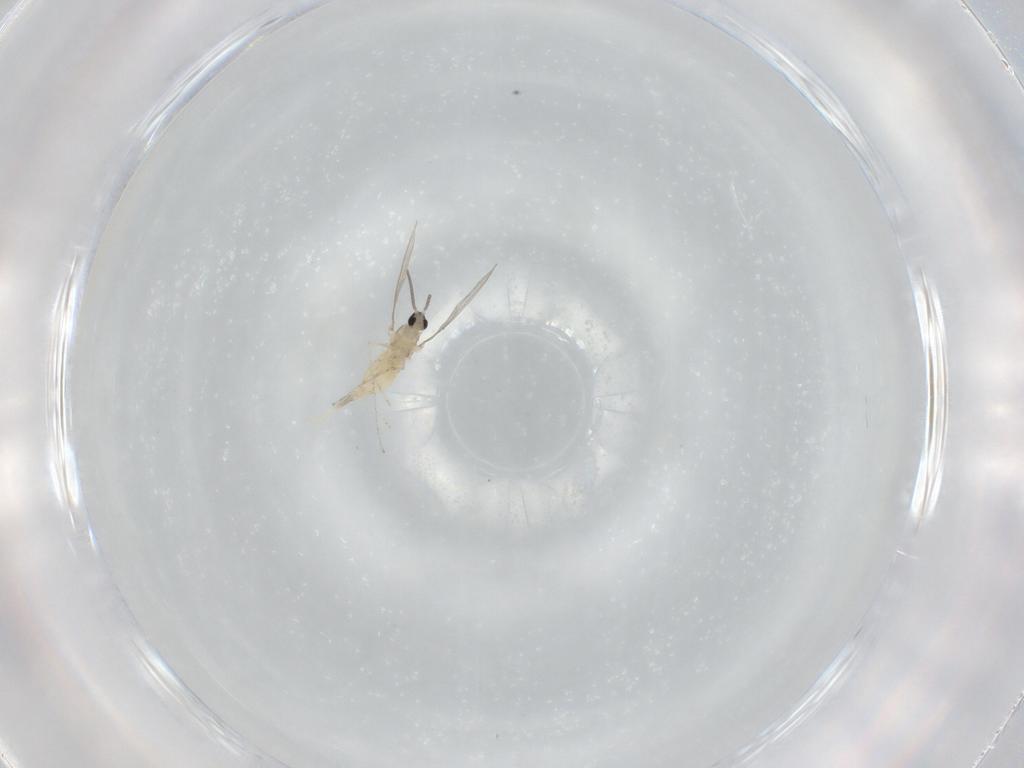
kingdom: Animalia
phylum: Arthropoda
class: Insecta
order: Diptera
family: Cecidomyiidae
